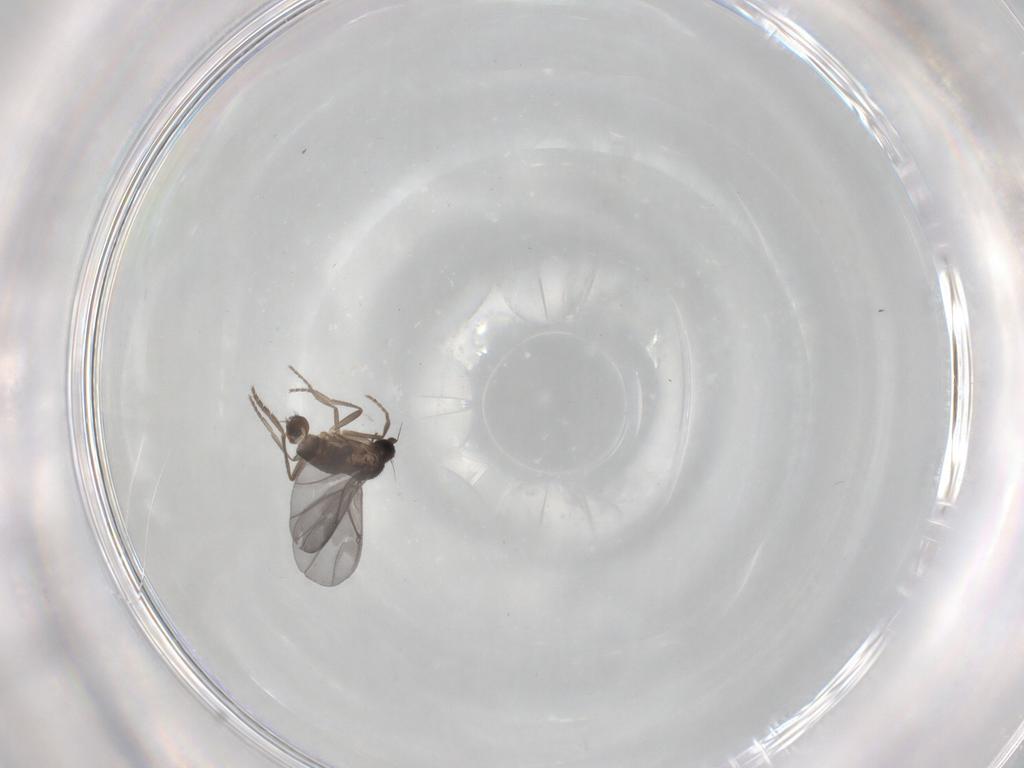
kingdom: Animalia
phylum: Arthropoda
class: Insecta
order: Diptera
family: Phoridae
